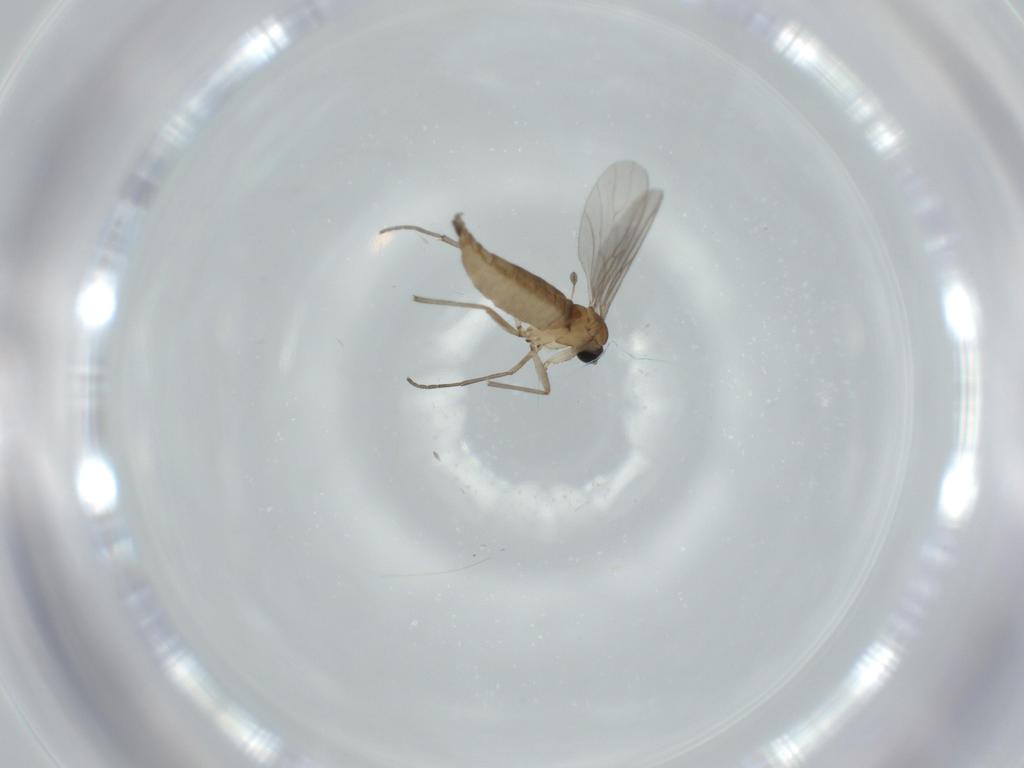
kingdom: Animalia
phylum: Arthropoda
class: Insecta
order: Diptera
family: Sciaridae
